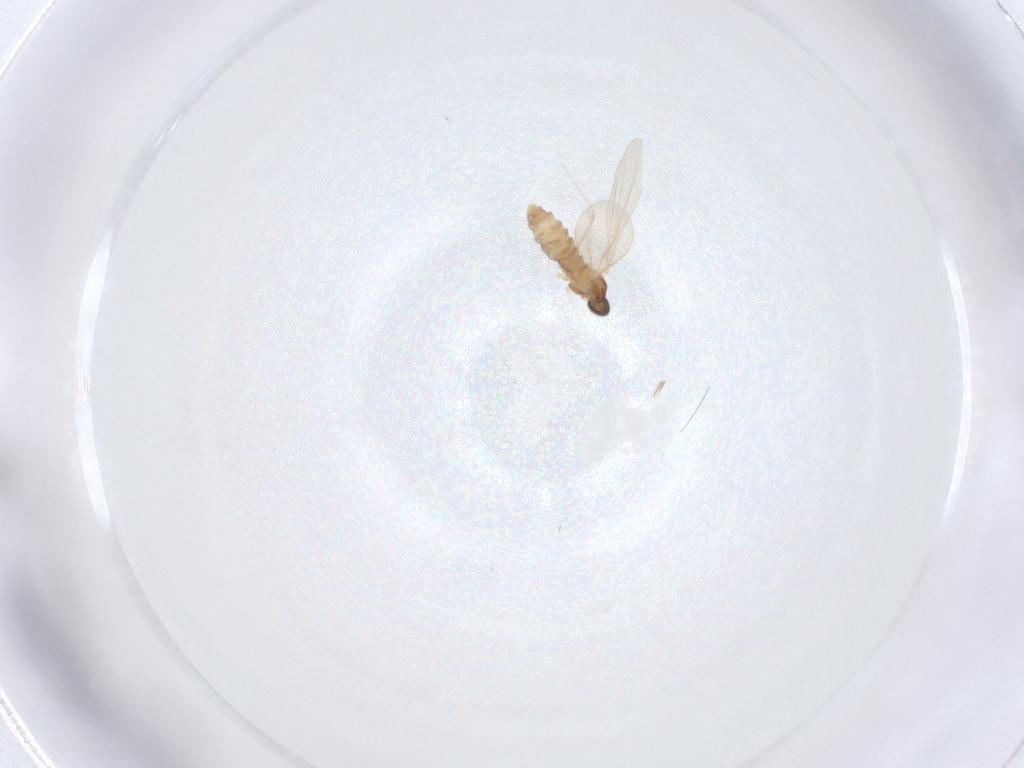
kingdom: Animalia
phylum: Arthropoda
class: Insecta
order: Diptera
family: Cecidomyiidae
